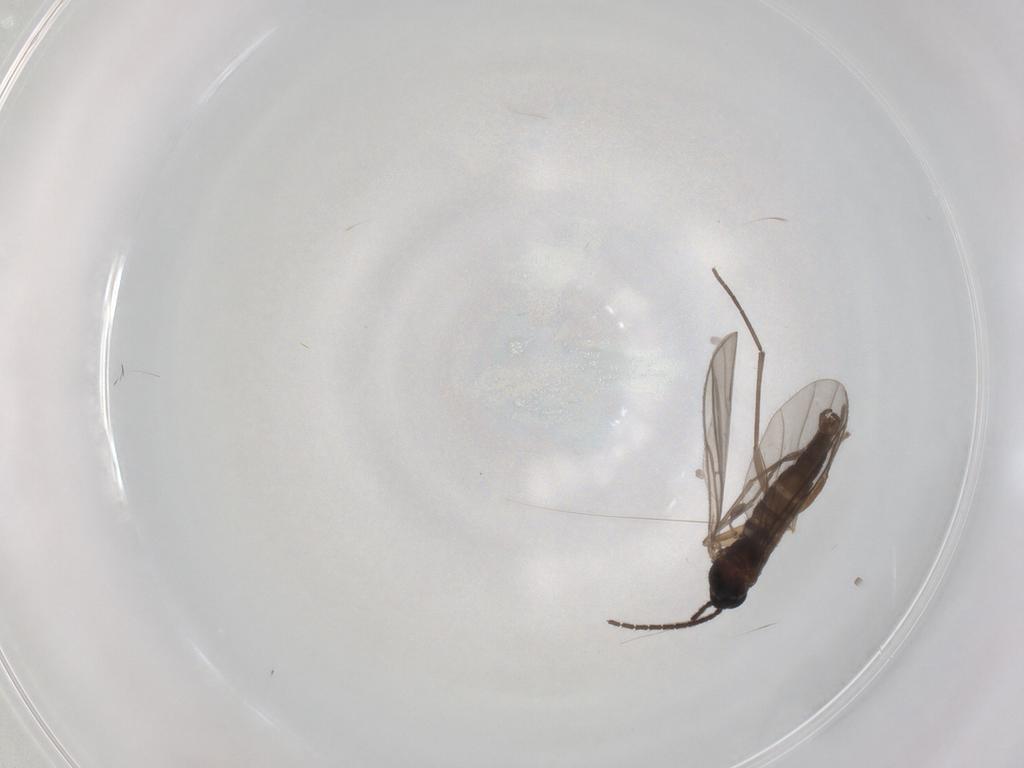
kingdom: Animalia
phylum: Arthropoda
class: Insecta
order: Diptera
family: Sciaridae
